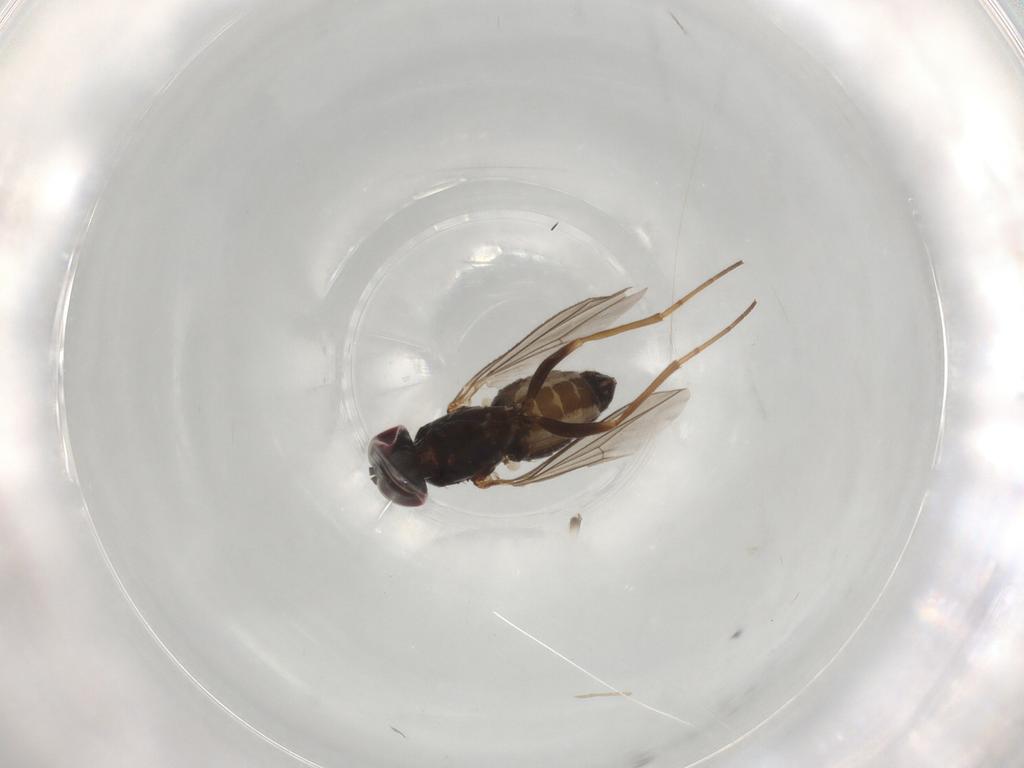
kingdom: Animalia
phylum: Arthropoda
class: Insecta
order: Diptera
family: Dolichopodidae
